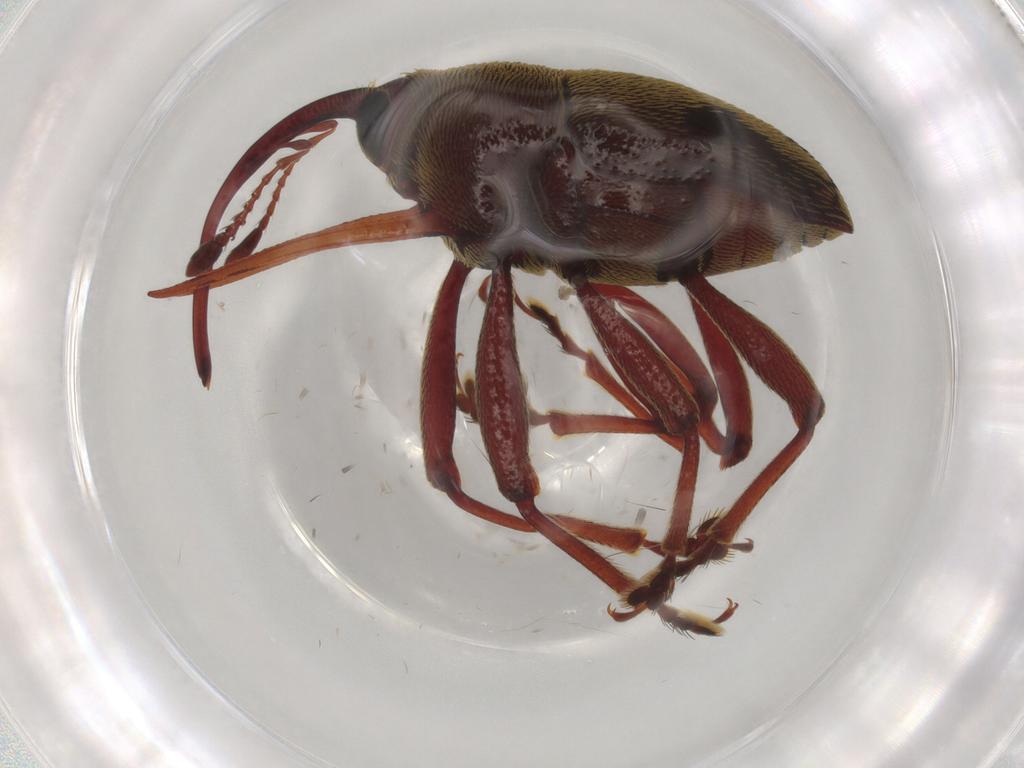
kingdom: Animalia
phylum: Arthropoda
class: Insecta
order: Coleoptera
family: Curculionidae
